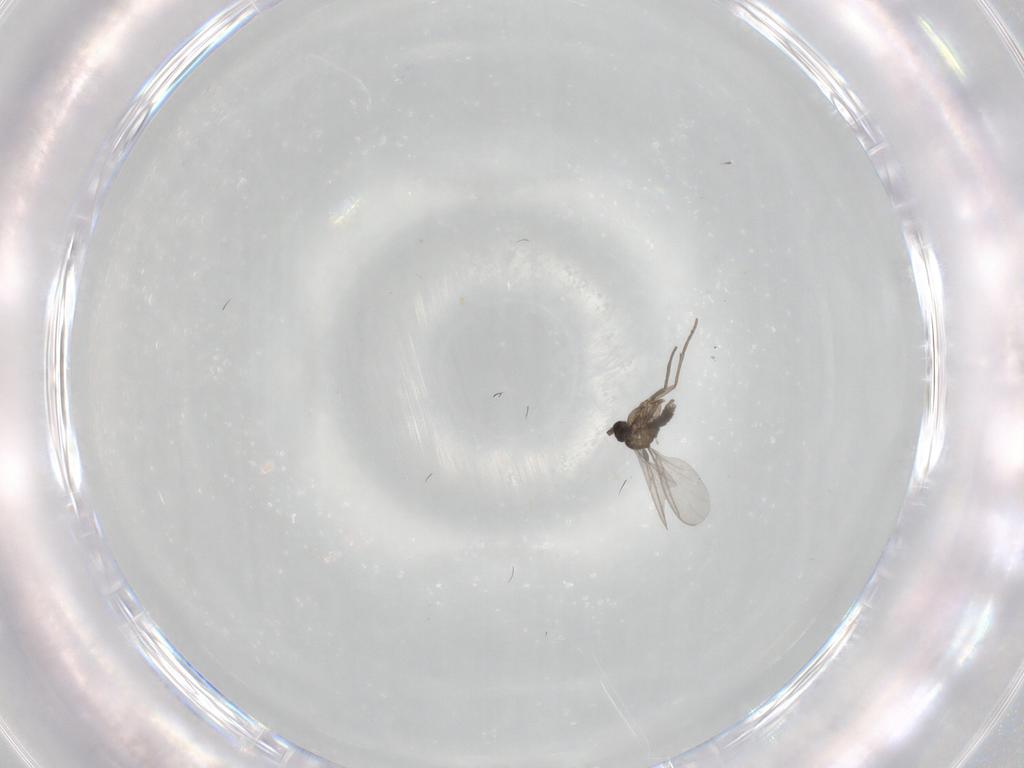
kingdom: Animalia
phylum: Arthropoda
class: Insecta
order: Diptera
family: Sciaridae
